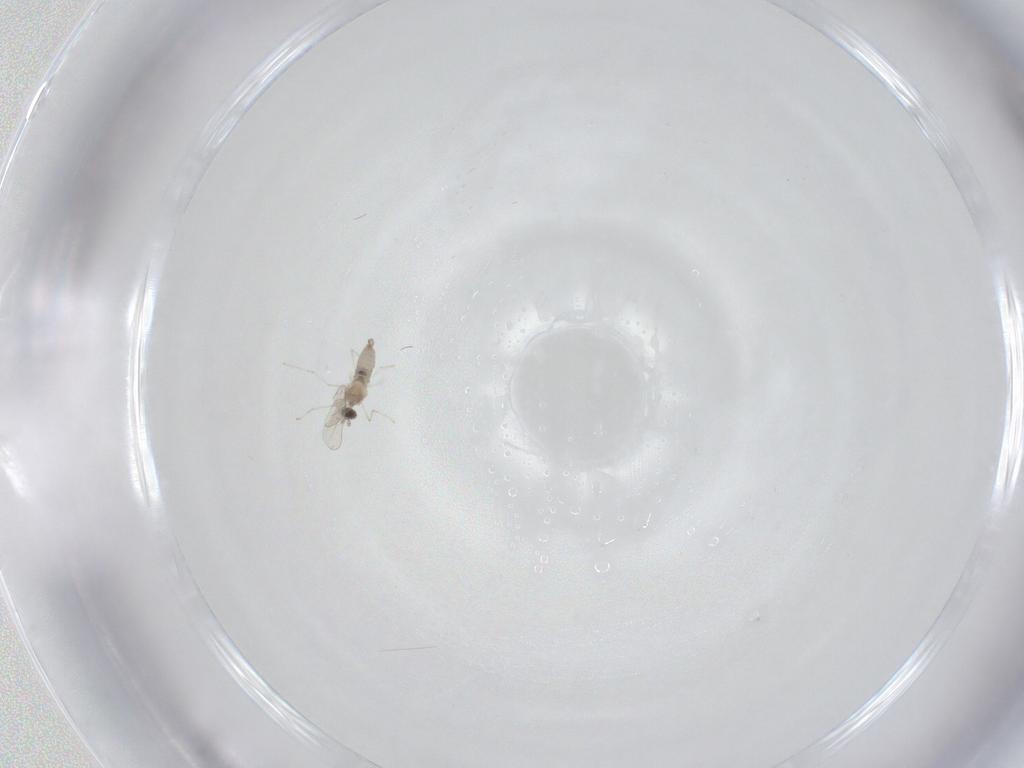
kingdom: Animalia
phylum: Arthropoda
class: Insecta
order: Diptera
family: Cecidomyiidae
